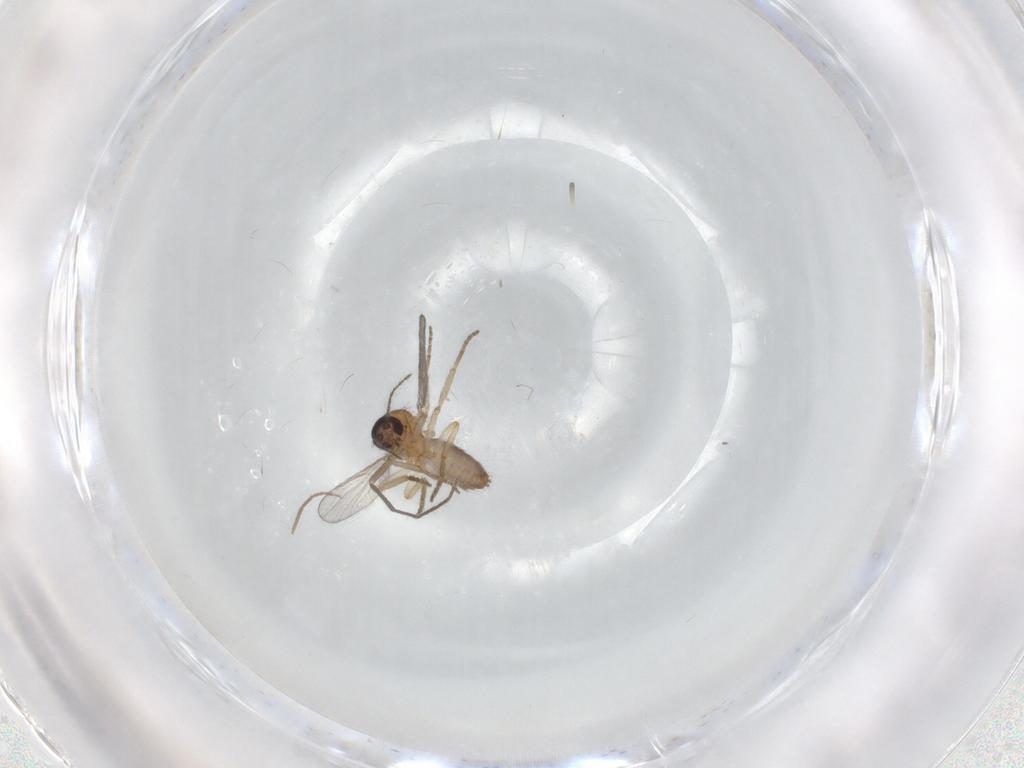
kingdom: Animalia
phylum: Arthropoda
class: Insecta
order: Diptera
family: Chironomidae
